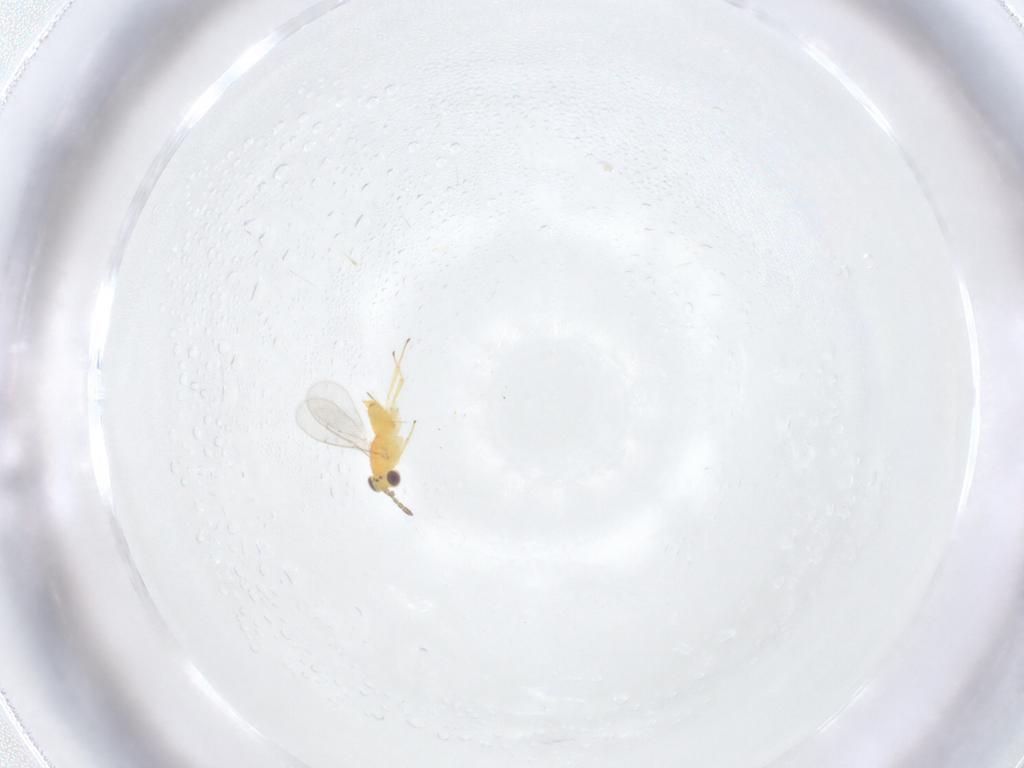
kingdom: Animalia
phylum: Arthropoda
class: Insecta
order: Hymenoptera
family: Aphelinidae
